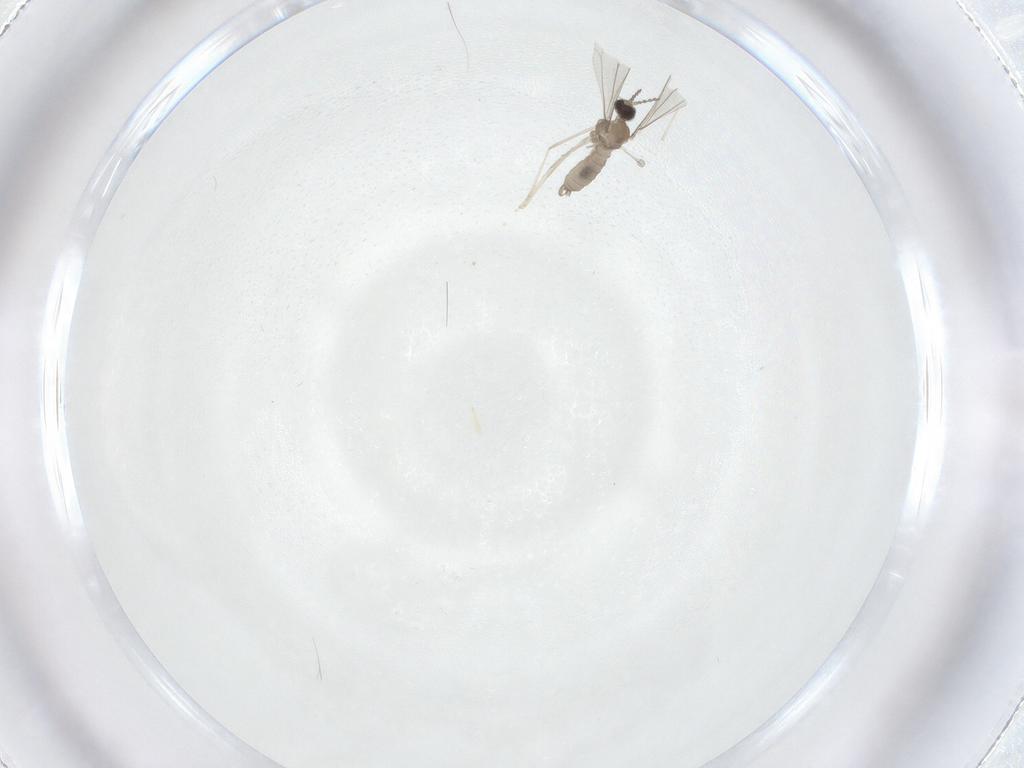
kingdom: Animalia
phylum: Arthropoda
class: Insecta
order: Diptera
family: Cecidomyiidae
